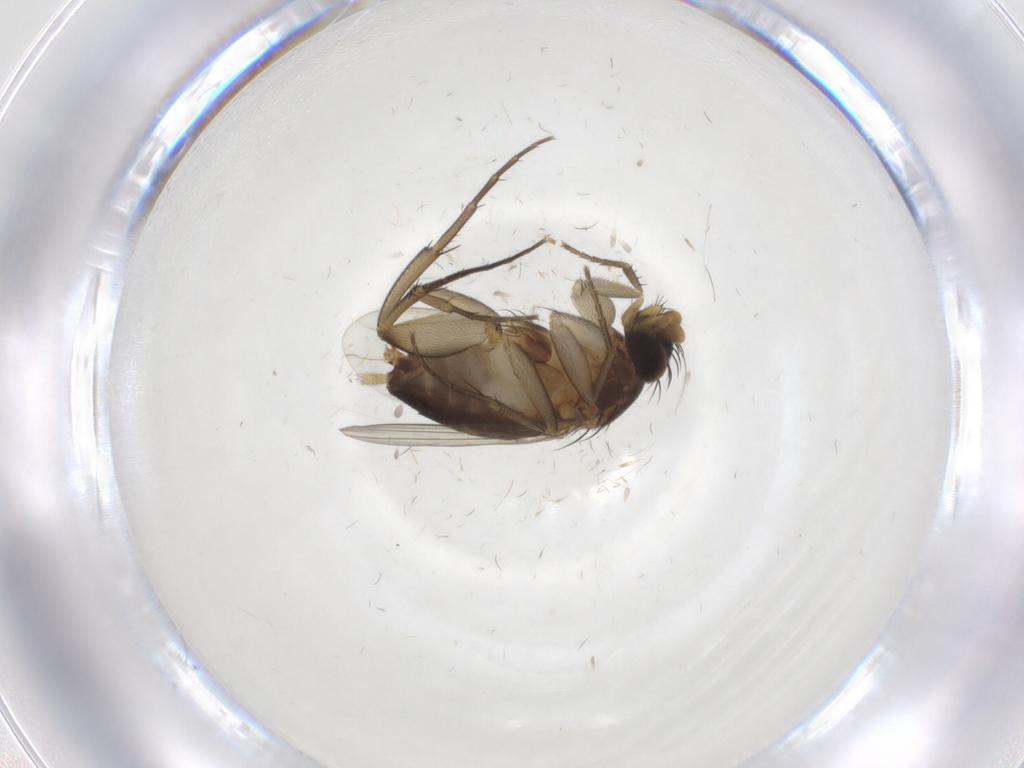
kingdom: Animalia
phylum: Arthropoda
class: Insecta
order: Diptera
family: Phoridae
